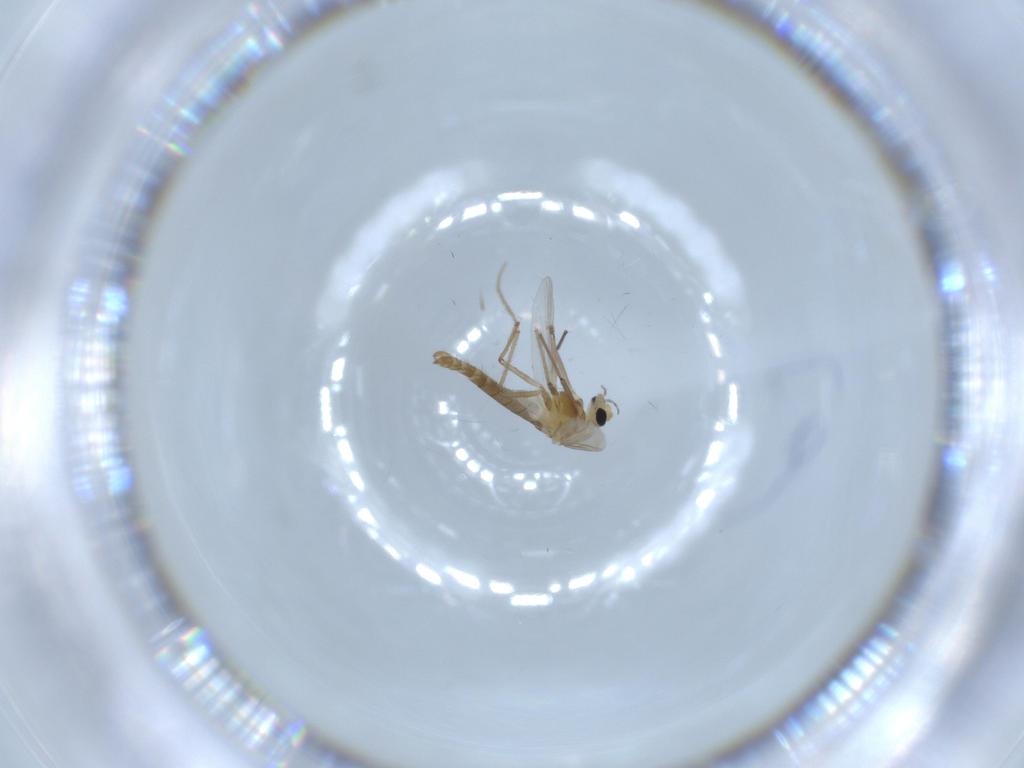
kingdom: Animalia
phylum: Arthropoda
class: Insecta
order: Diptera
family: Chironomidae
